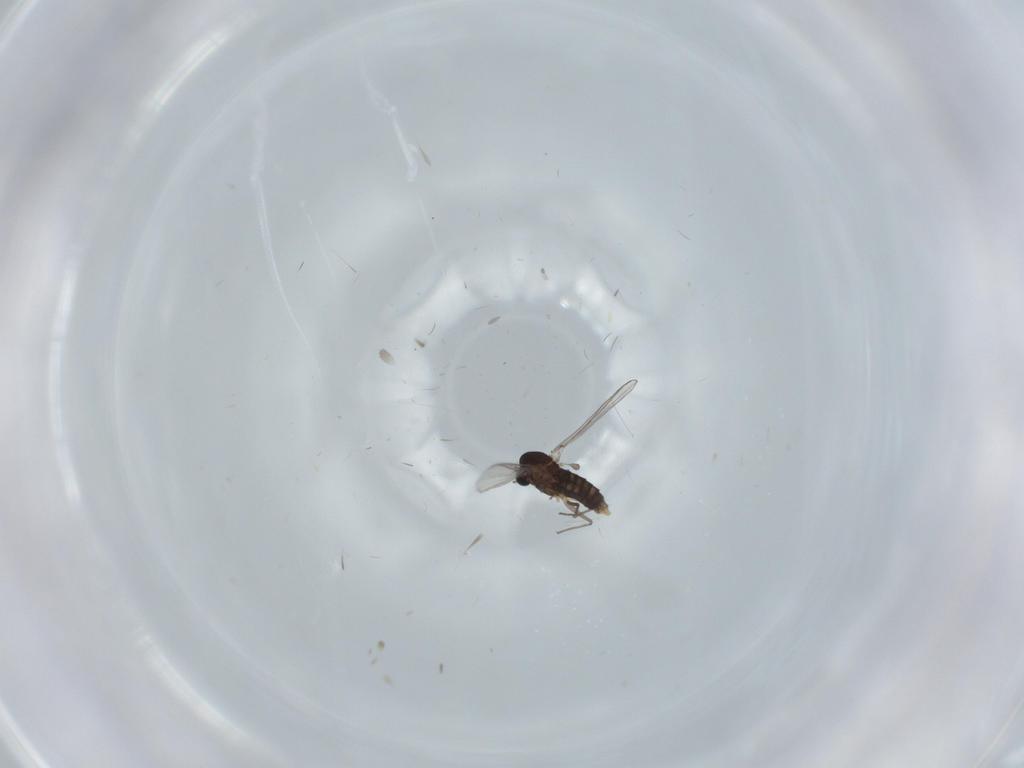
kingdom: Animalia
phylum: Arthropoda
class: Insecta
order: Diptera
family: Chironomidae
